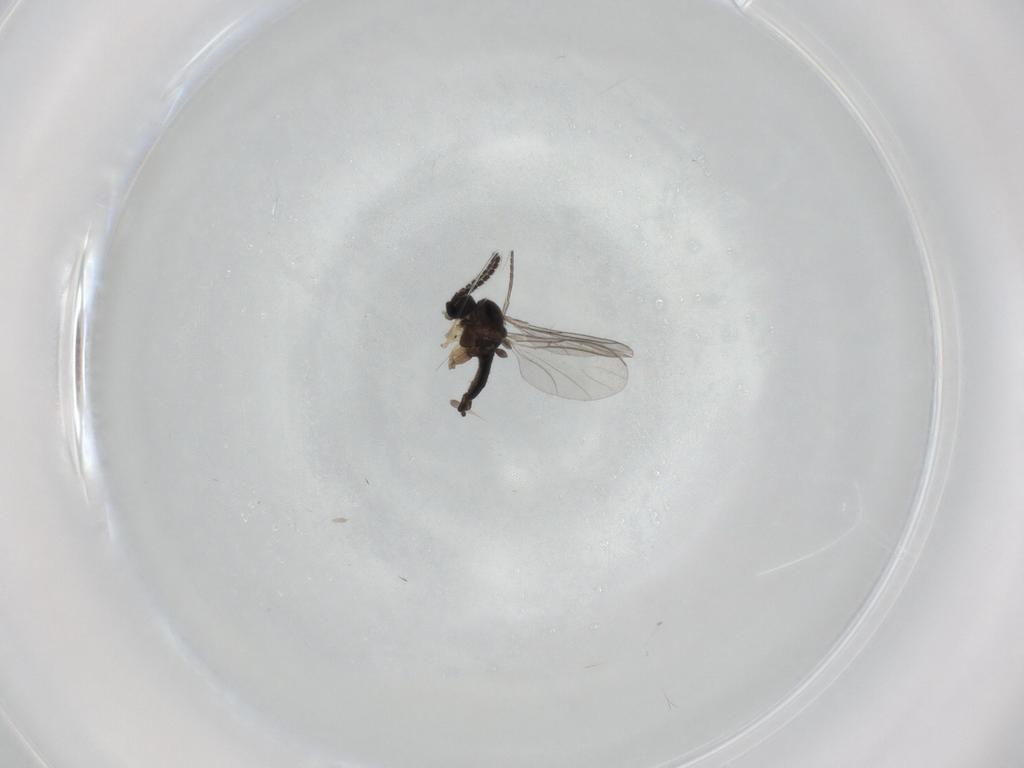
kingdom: Animalia
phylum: Arthropoda
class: Insecta
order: Diptera
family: Sciaridae
